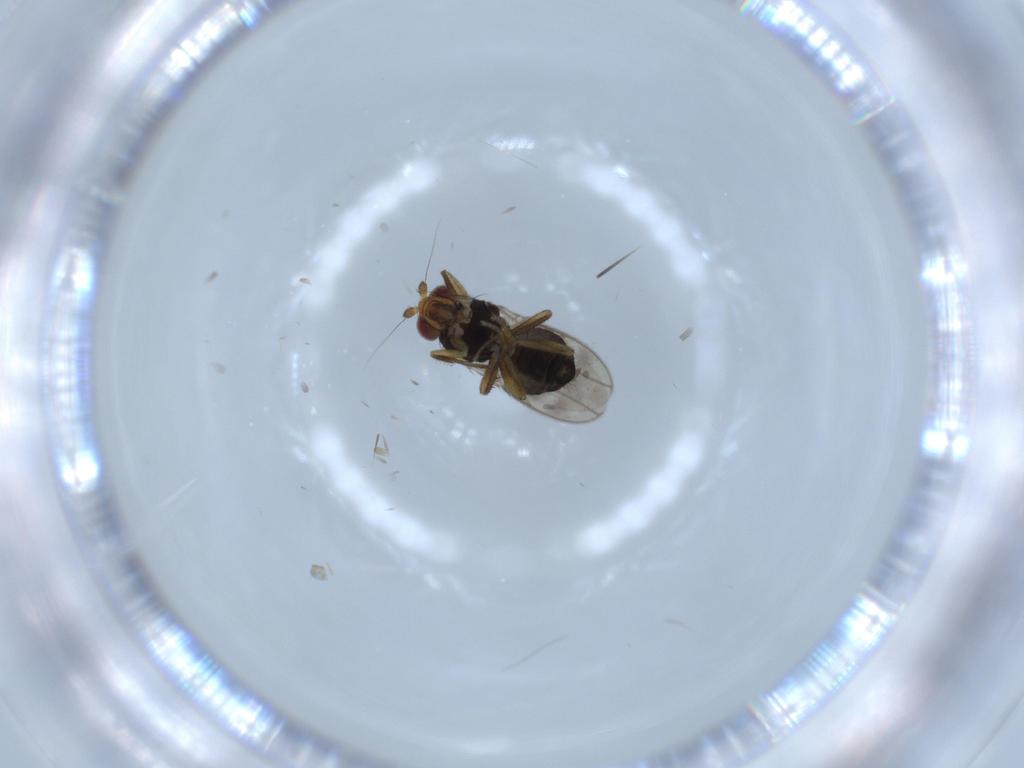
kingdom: Animalia
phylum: Arthropoda
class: Insecta
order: Diptera
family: Sphaeroceridae
